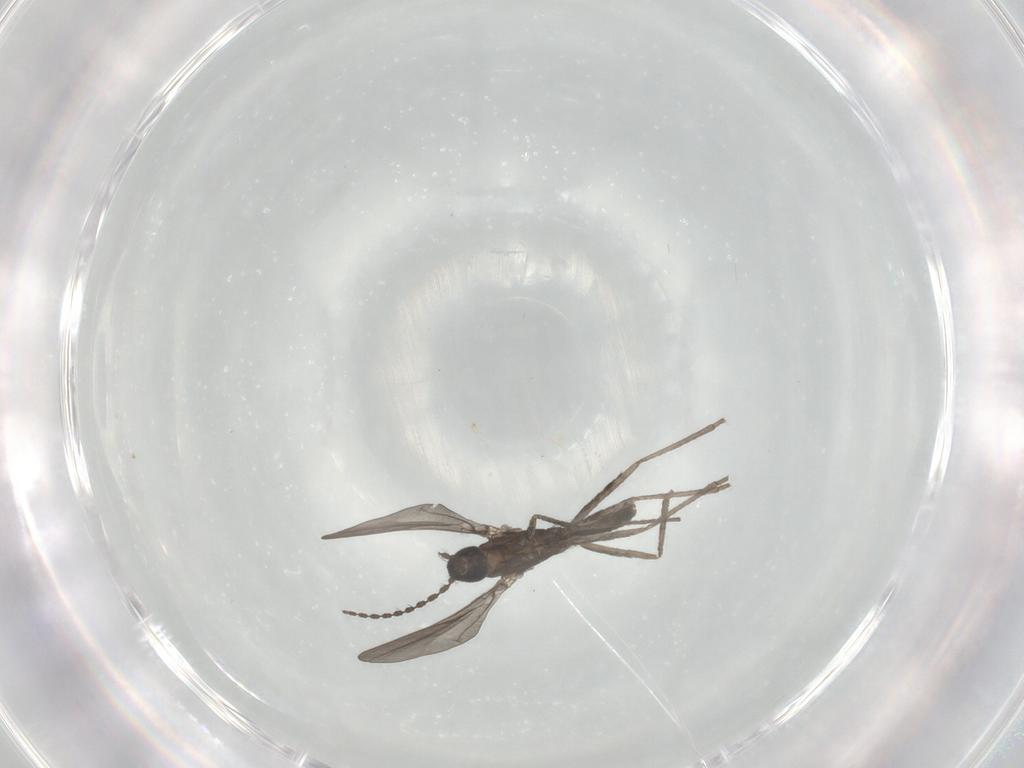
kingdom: Animalia
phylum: Arthropoda
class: Insecta
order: Diptera
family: Cecidomyiidae
